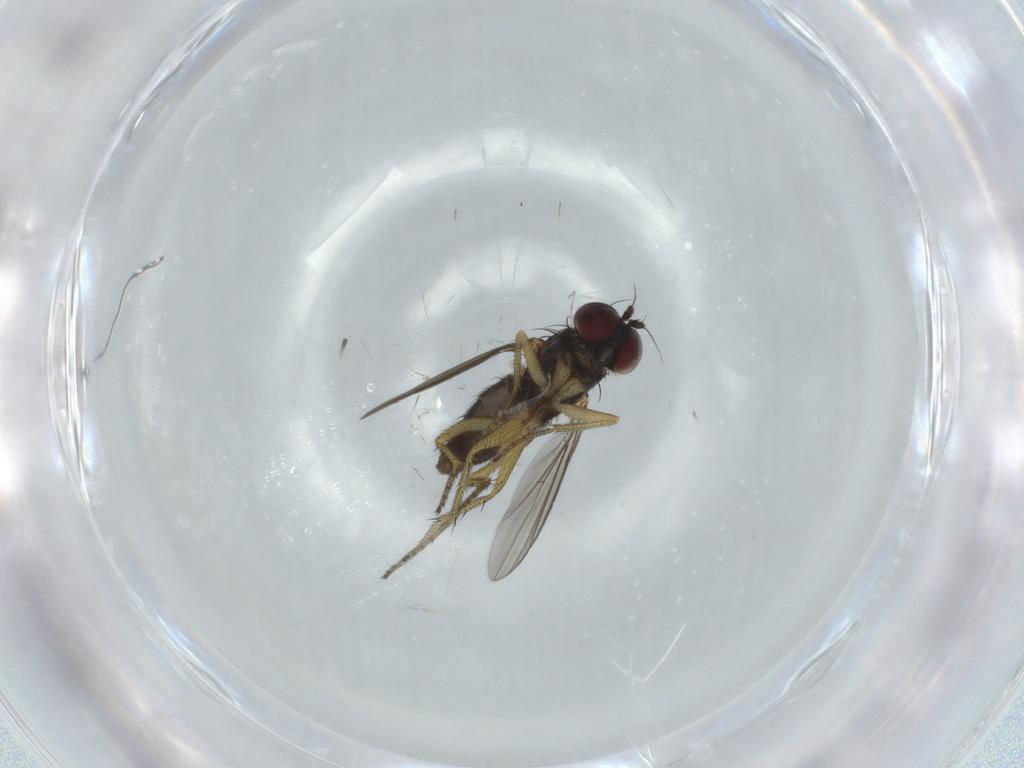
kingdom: Animalia
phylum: Arthropoda
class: Insecta
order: Diptera
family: Dolichopodidae
